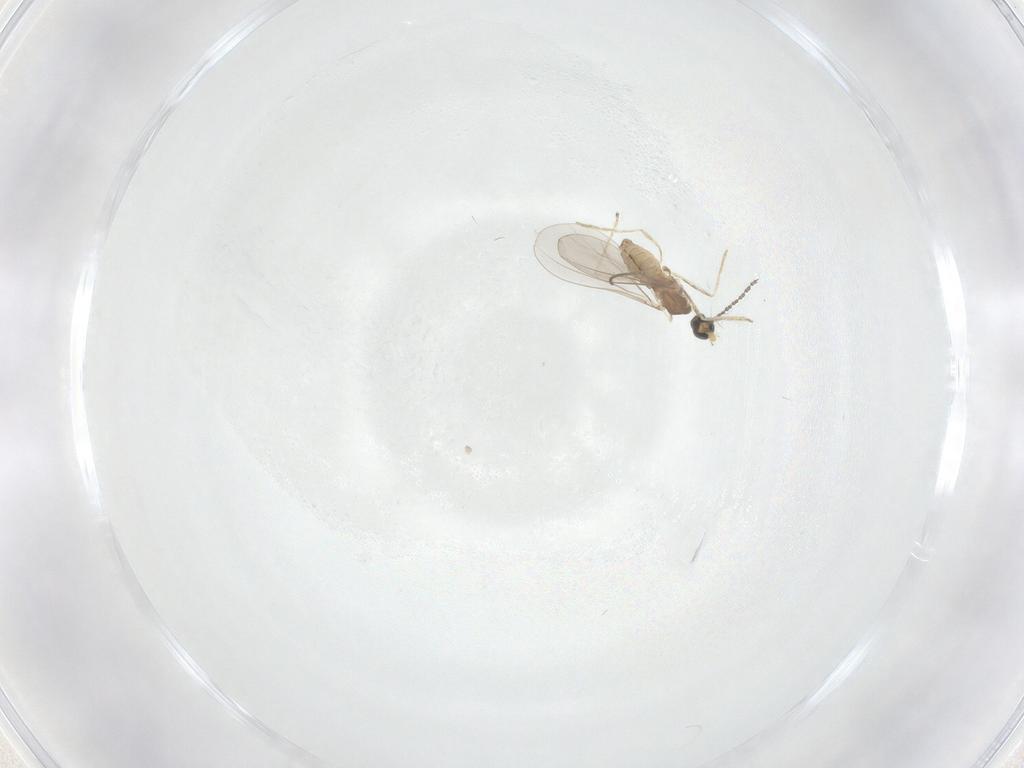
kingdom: Animalia
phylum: Arthropoda
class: Insecta
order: Diptera
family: Cecidomyiidae
